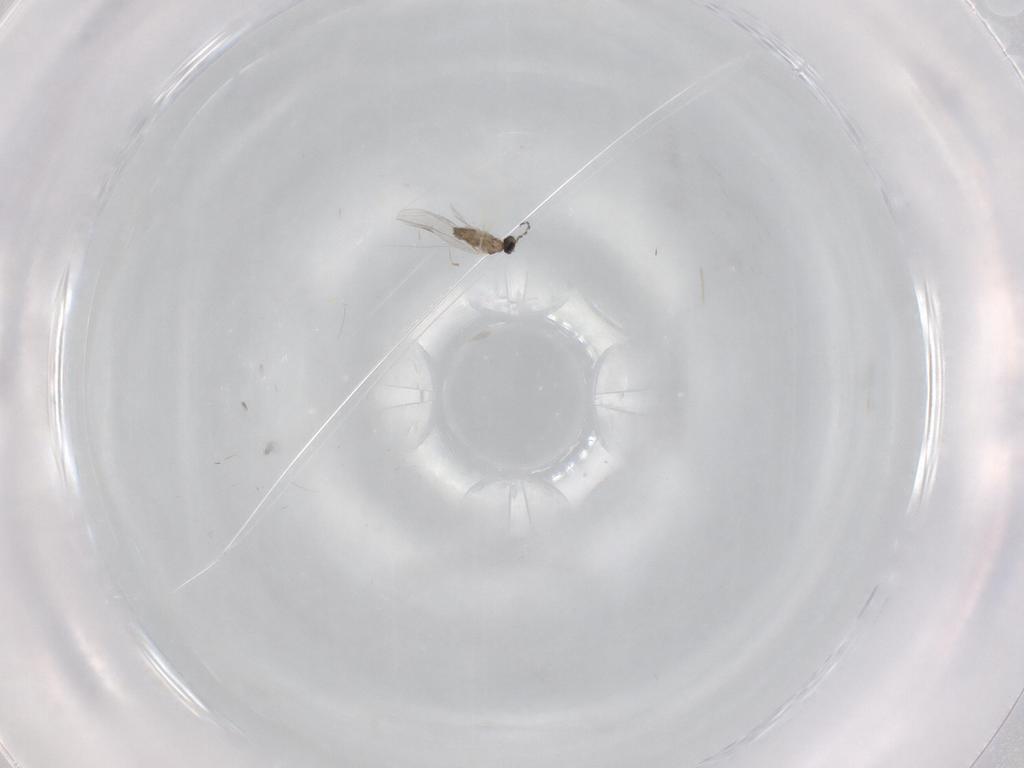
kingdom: Animalia
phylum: Arthropoda
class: Insecta
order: Diptera
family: Cecidomyiidae
